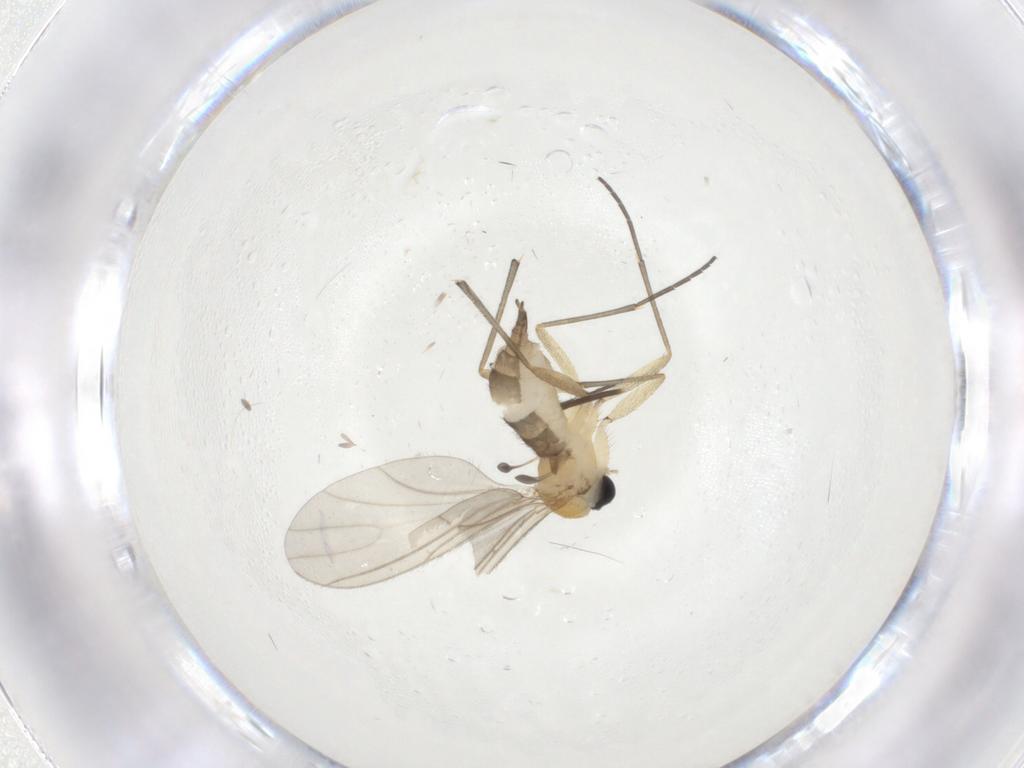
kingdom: Animalia
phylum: Arthropoda
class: Insecta
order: Diptera
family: Sciaridae
